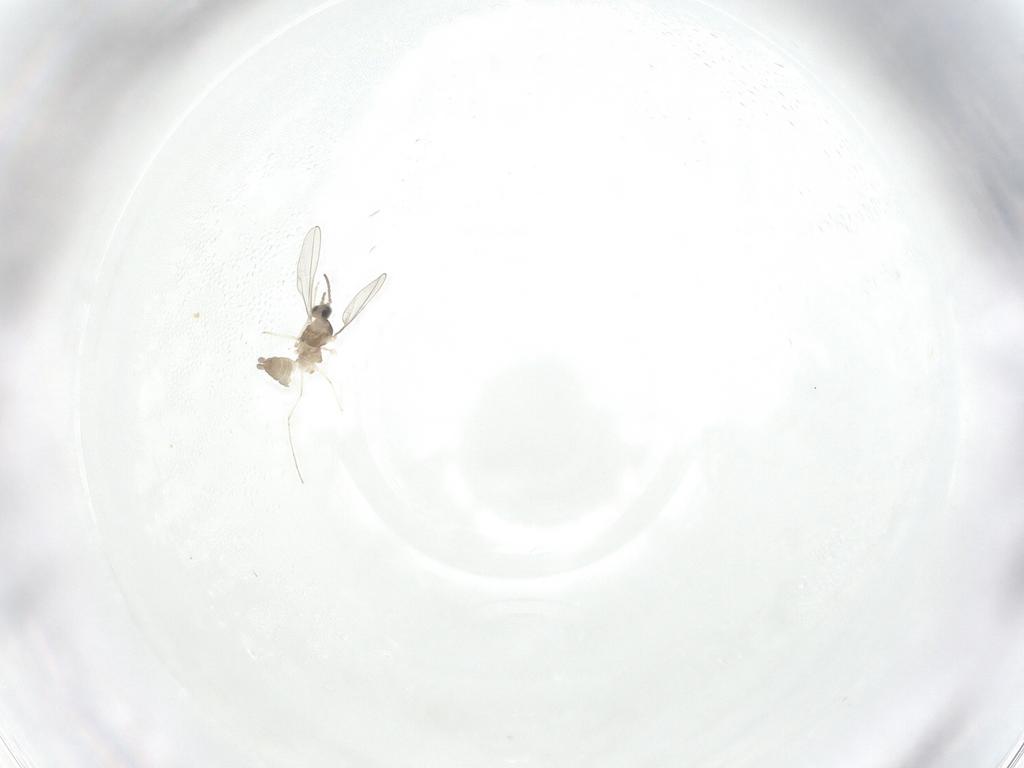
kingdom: Animalia
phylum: Arthropoda
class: Insecta
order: Diptera
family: Cecidomyiidae
